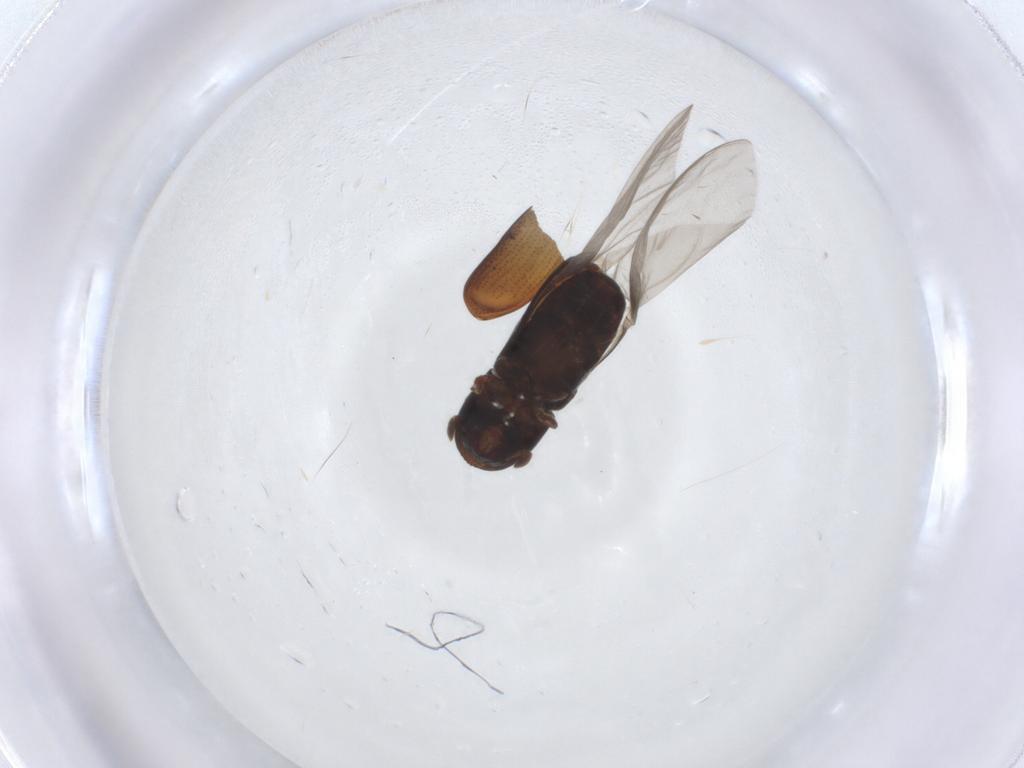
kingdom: Animalia
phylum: Arthropoda
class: Insecta
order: Coleoptera
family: Curculionidae
